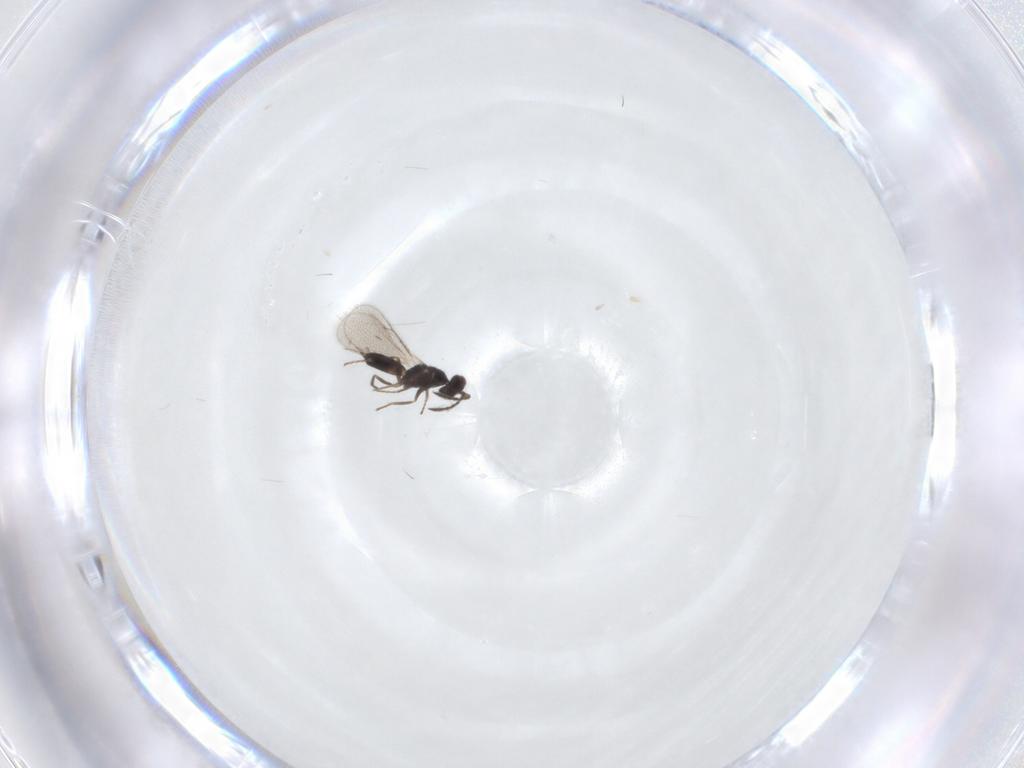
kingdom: Animalia
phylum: Arthropoda
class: Insecta
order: Hymenoptera
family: Eulophidae
